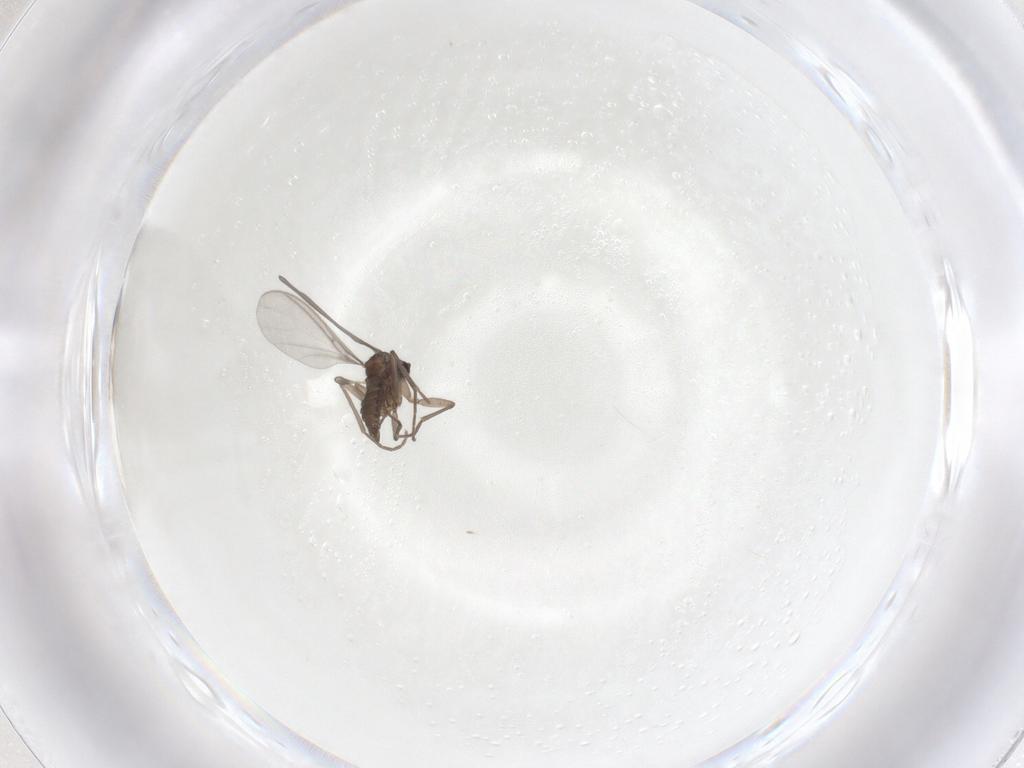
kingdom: Animalia
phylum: Arthropoda
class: Insecta
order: Diptera
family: Sciaridae
